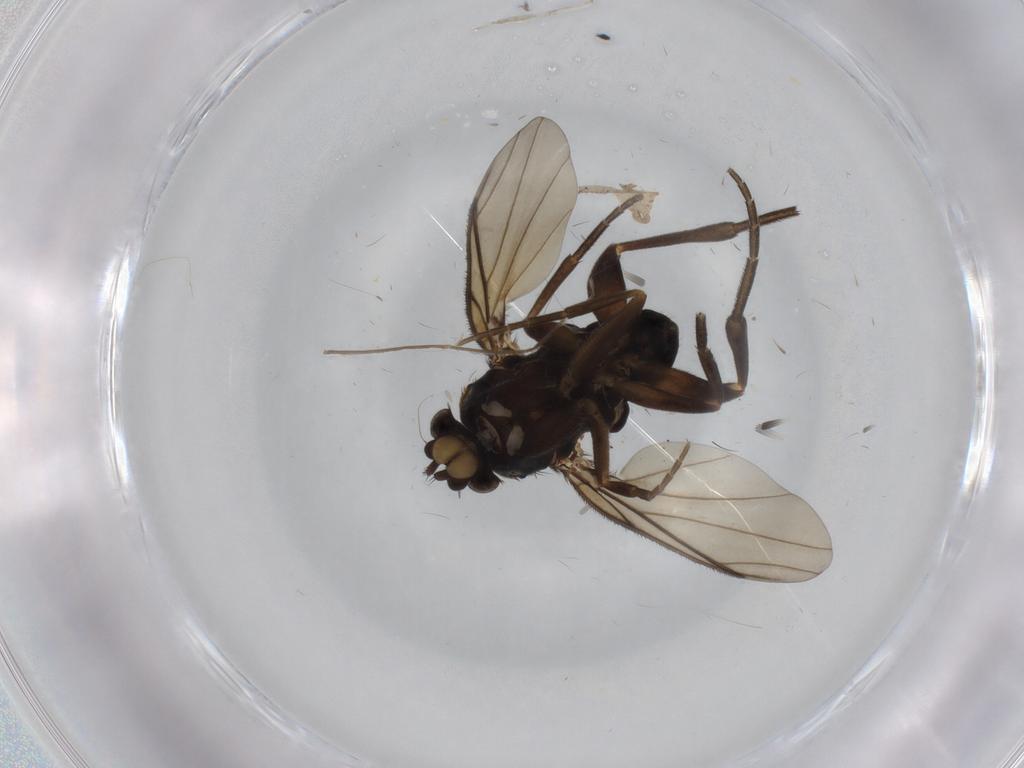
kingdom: Animalia
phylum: Arthropoda
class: Insecta
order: Diptera
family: Phoridae
